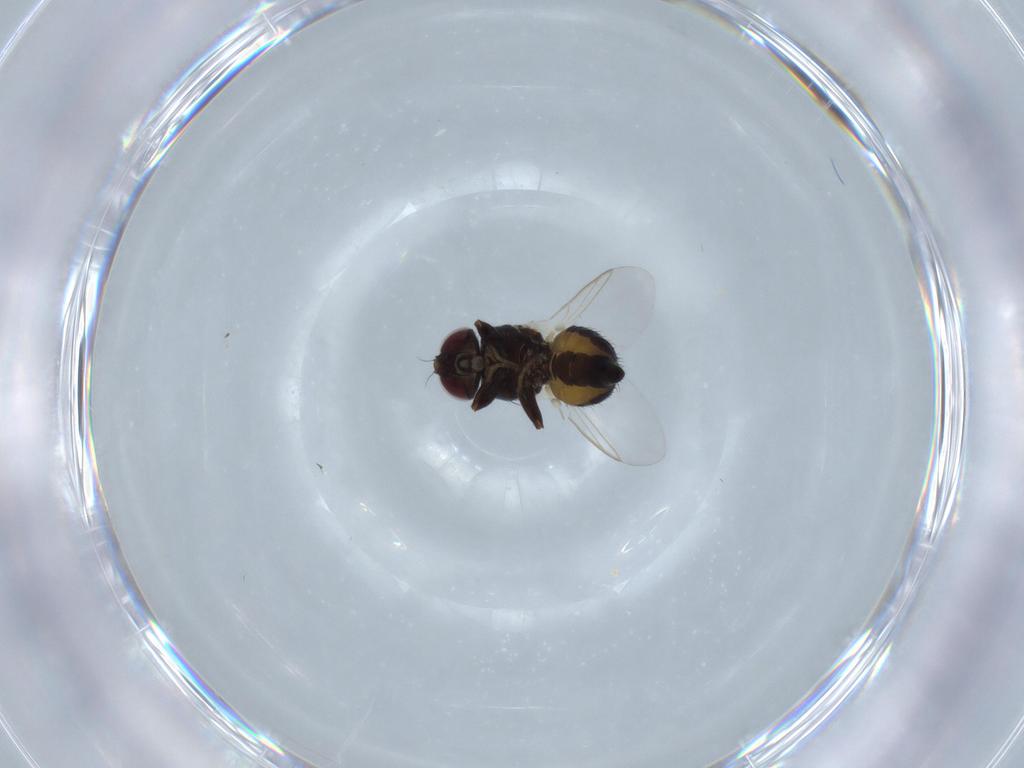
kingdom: Animalia
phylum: Arthropoda
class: Insecta
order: Diptera
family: Agromyzidae
